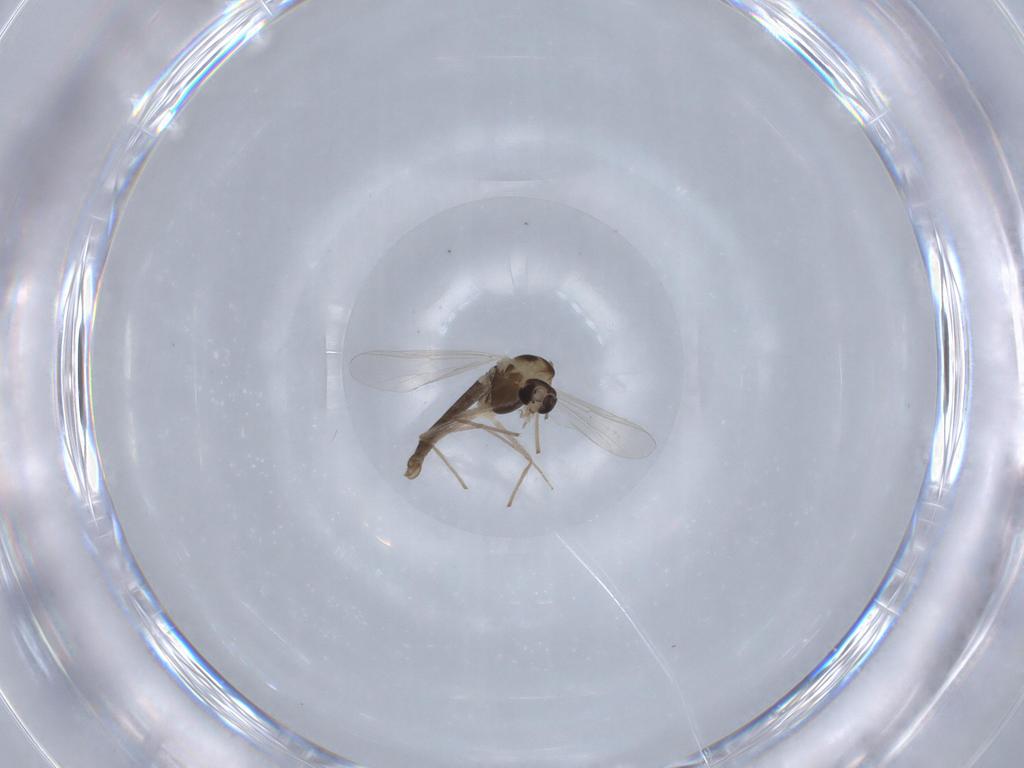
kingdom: Animalia
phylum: Arthropoda
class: Insecta
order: Diptera
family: Chironomidae
